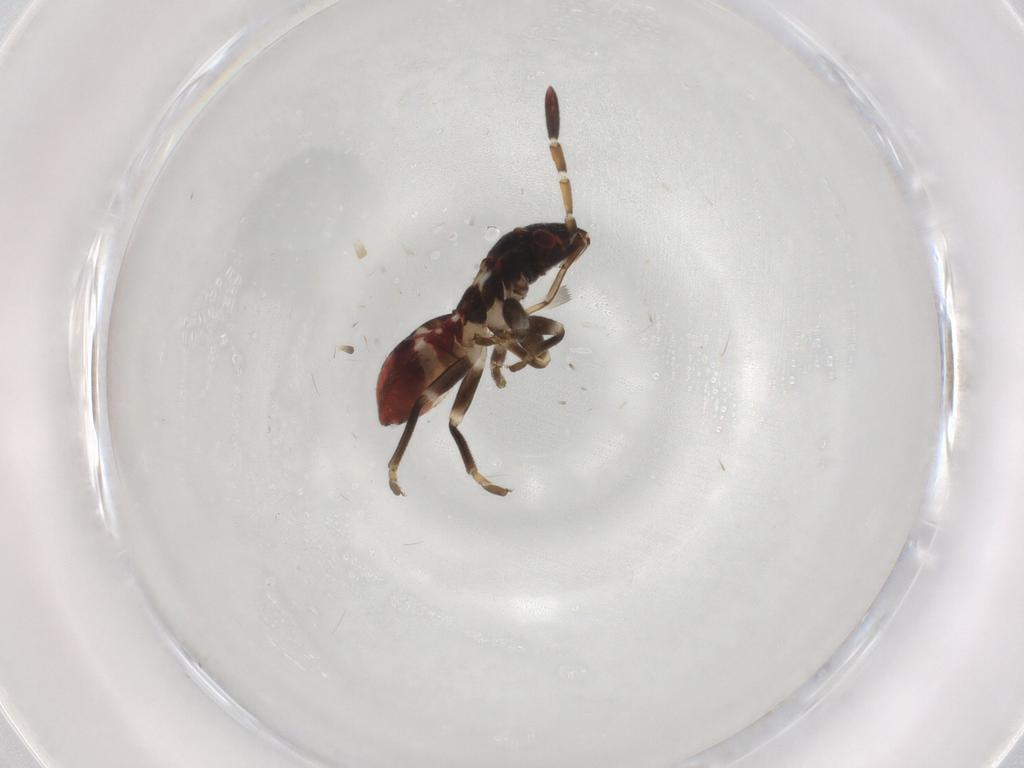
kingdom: Animalia
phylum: Arthropoda
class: Insecta
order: Hemiptera
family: Rhyparochromidae
